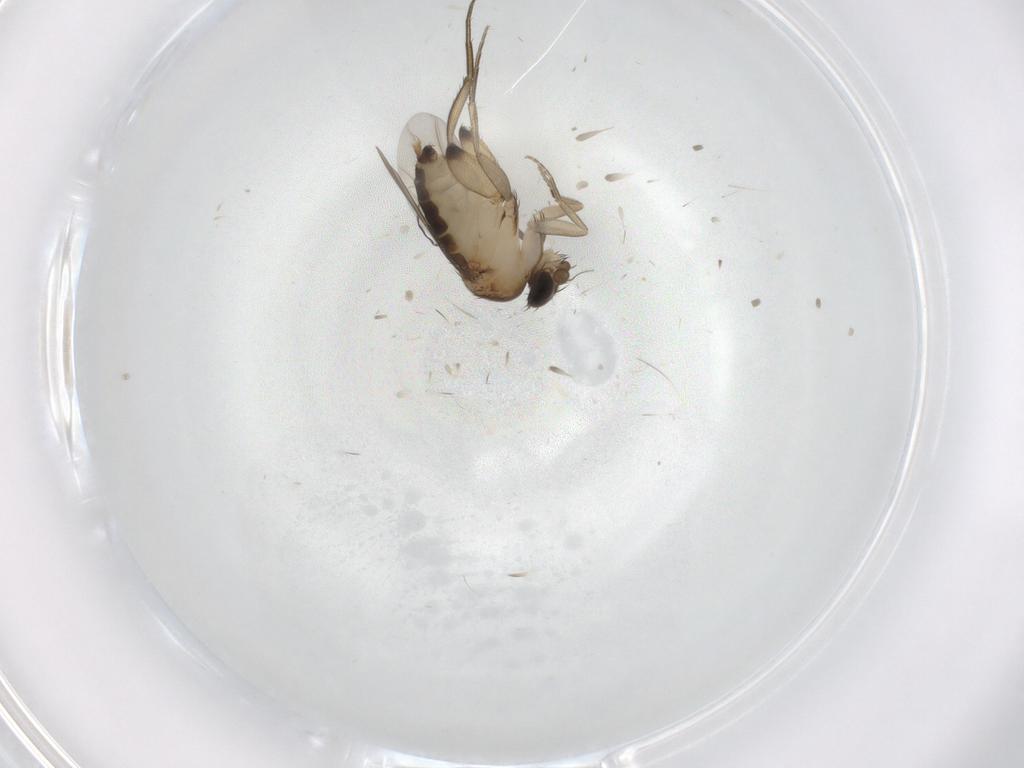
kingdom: Animalia
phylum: Arthropoda
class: Insecta
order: Diptera
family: Phoridae
